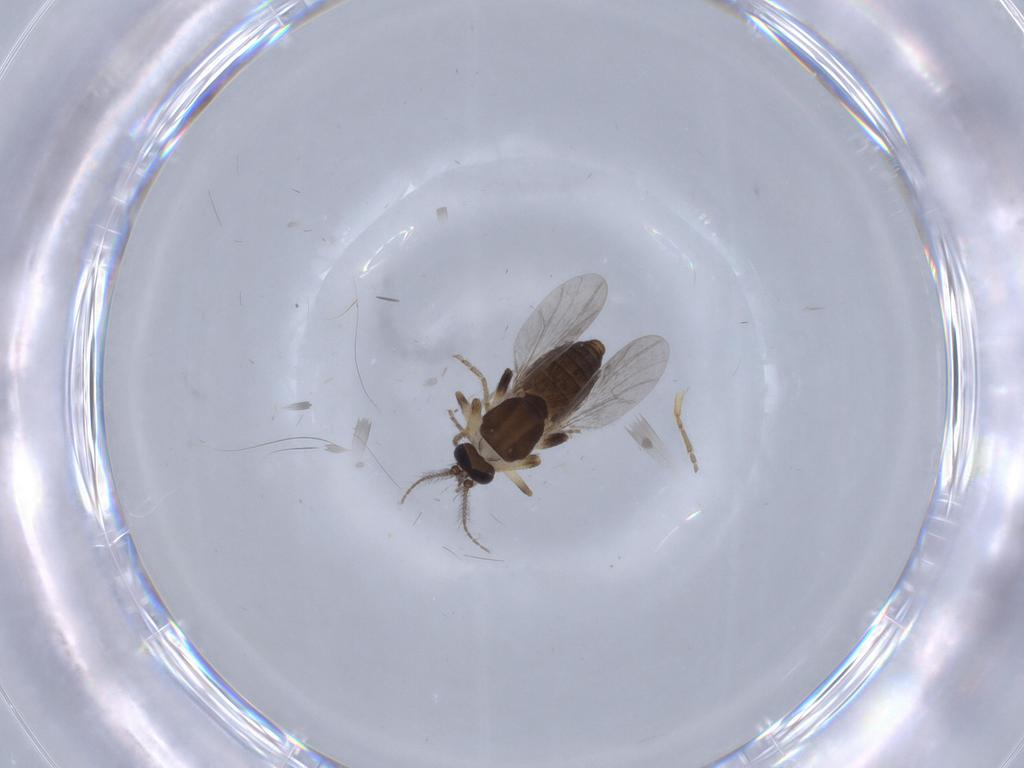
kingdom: Animalia
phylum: Arthropoda
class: Insecta
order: Diptera
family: Ceratopogonidae
